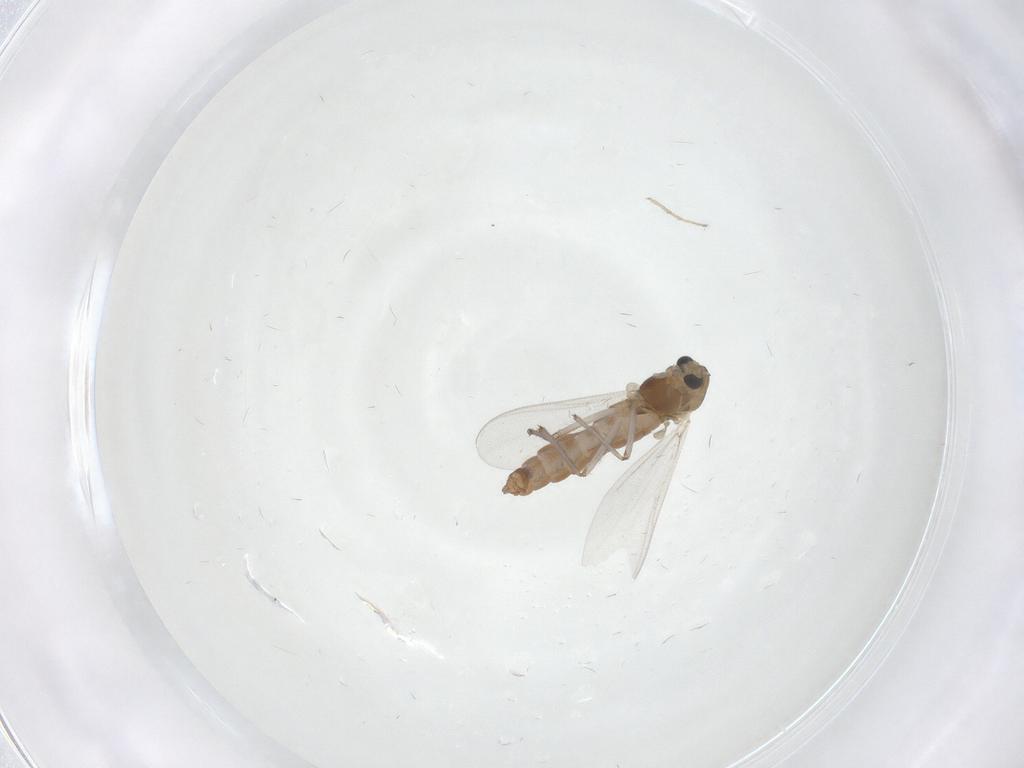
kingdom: Animalia
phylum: Arthropoda
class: Insecta
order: Diptera
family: Chironomidae
